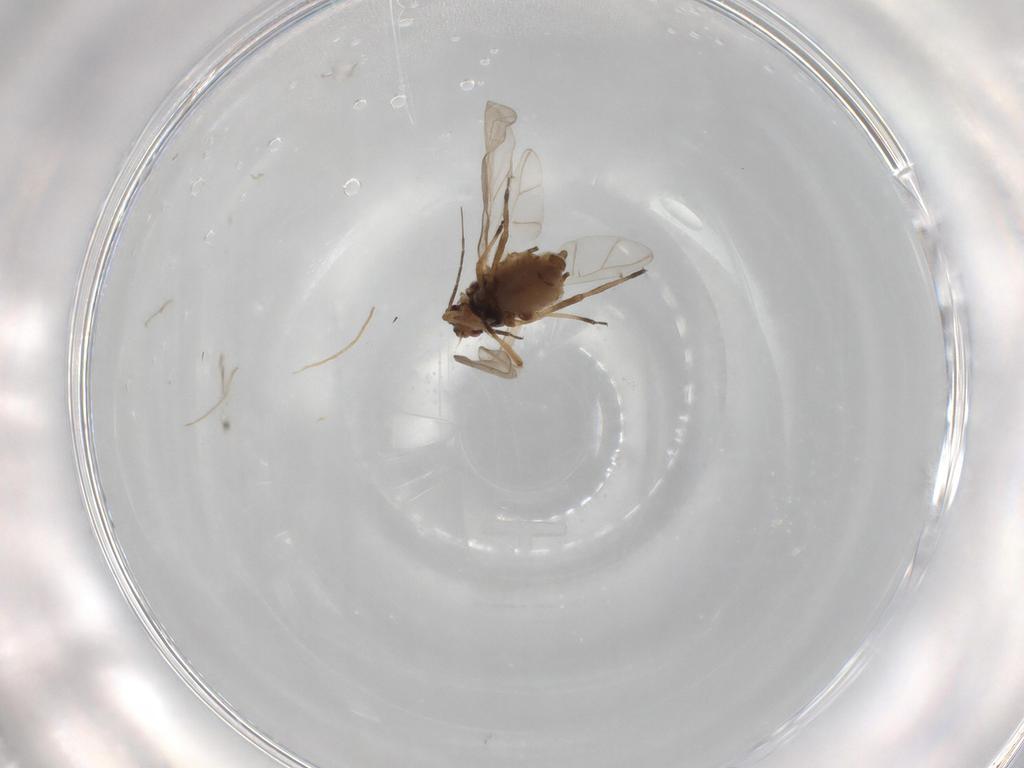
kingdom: Animalia
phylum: Arthropoda
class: Insecta
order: Hemiptera
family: Aphididae
